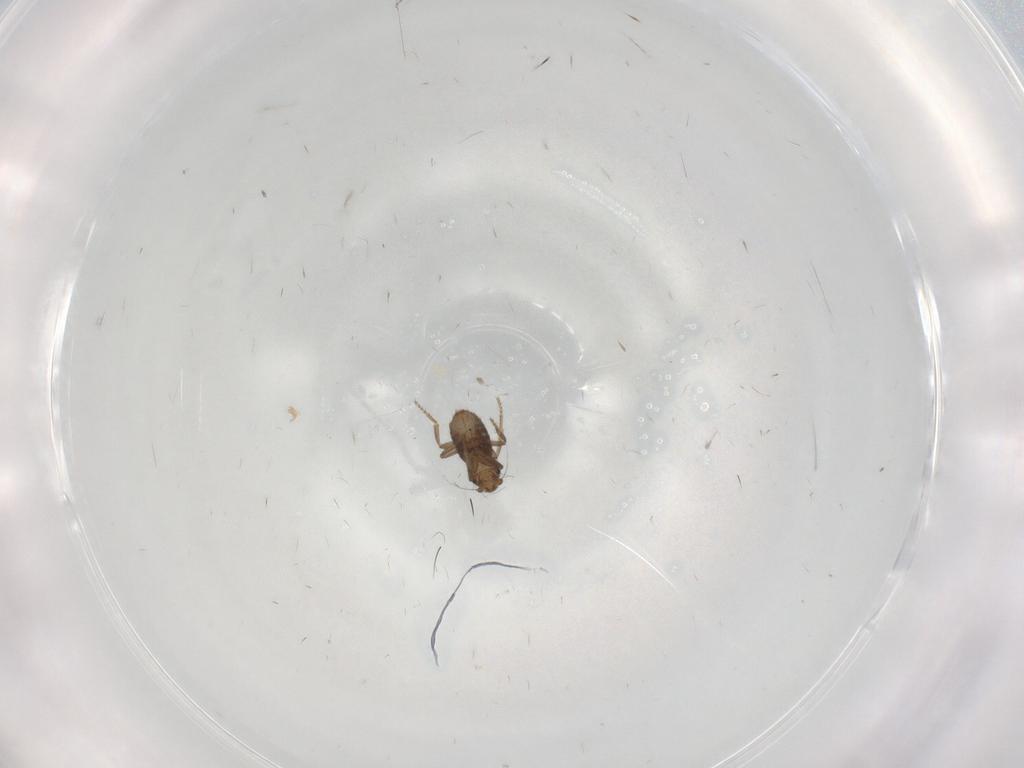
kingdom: Animalia
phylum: Arthropoda
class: Insecta
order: Diptera
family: Phoridae
